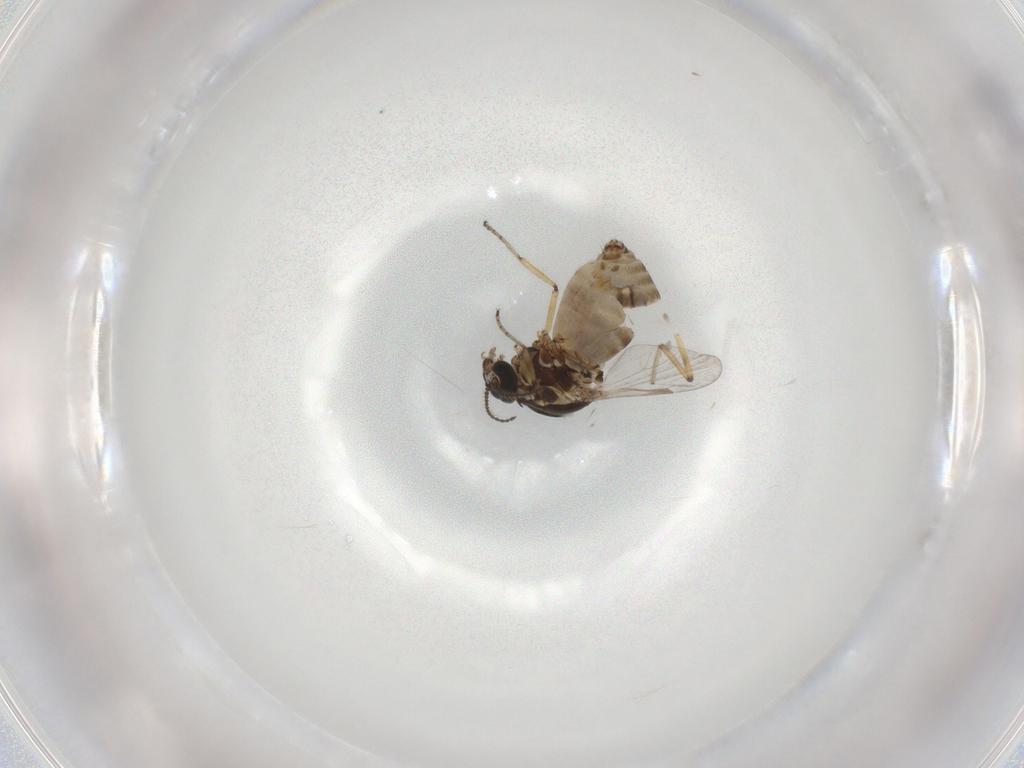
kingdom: Animalia
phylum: Arthropoda
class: Insecta
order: Diptera
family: Ceratopogonidae
